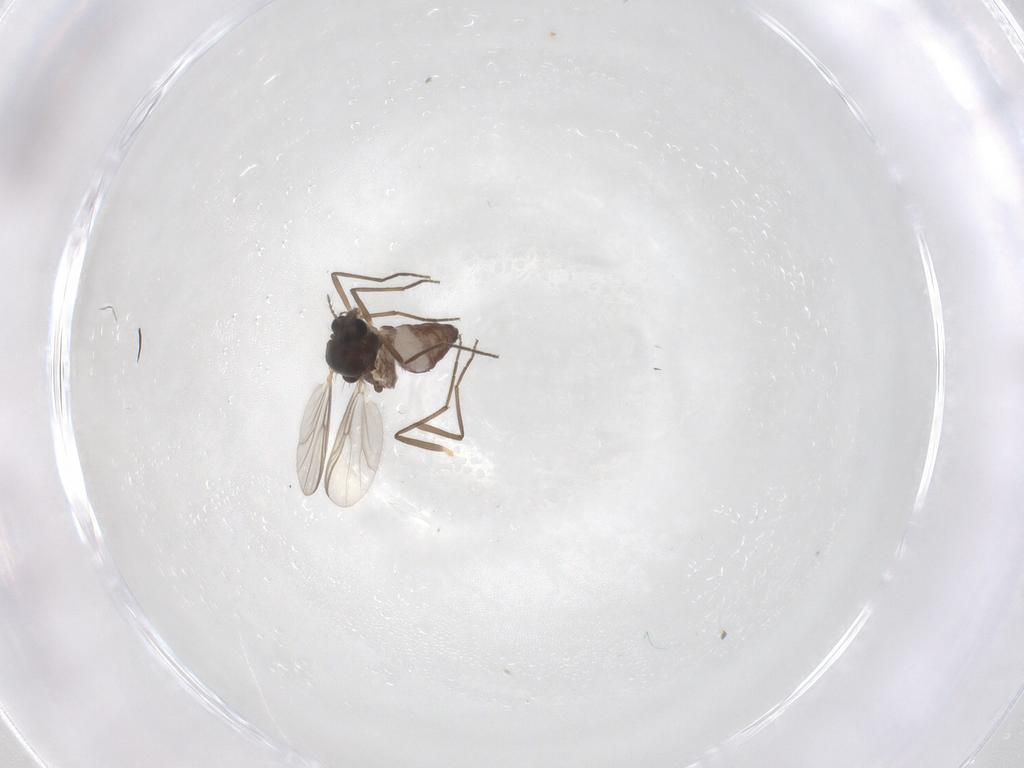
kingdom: Animalia
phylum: Arthropoda
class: Insecta
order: Diptera
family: Chironomidae
